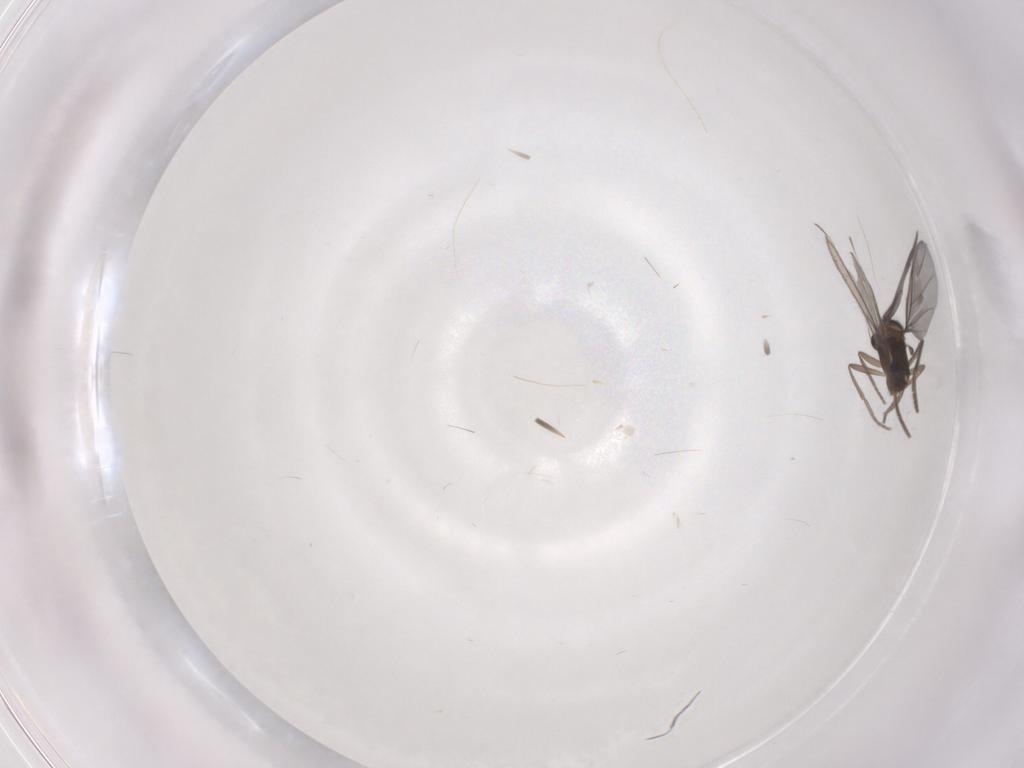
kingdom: Animalia
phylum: Arthropoda
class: Insecta
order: Diptera
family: Phoridae
